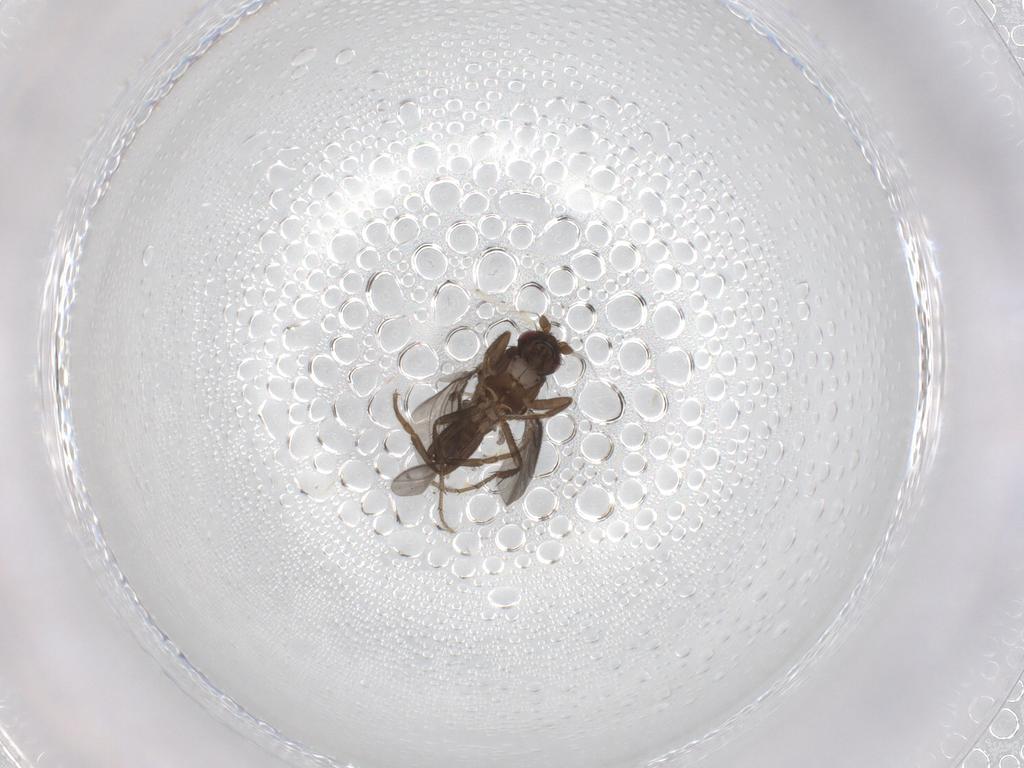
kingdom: Animalia
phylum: Arthropoda
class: Insecta
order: Diptera
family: Sphaeroceridae
